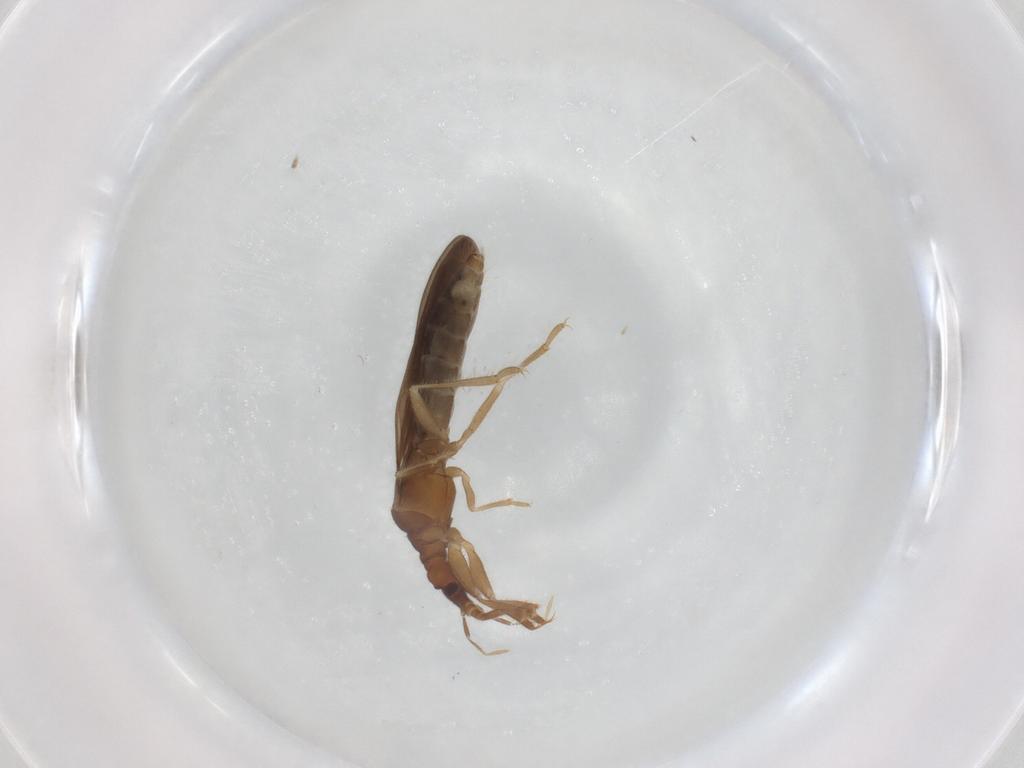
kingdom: Animalia
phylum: Arthropoda
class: Insecta
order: Hemiptera
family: Enicocephalidae
